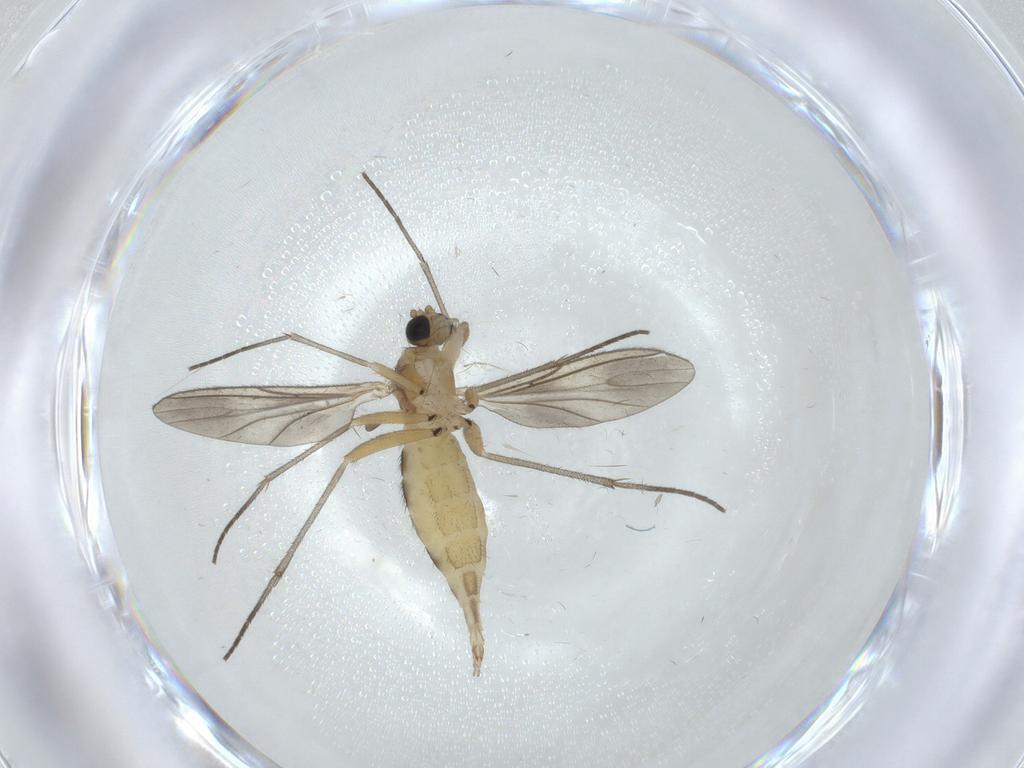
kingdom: Animalia
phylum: Arthropoda
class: Insecta
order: Diptera
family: Sciaridae
